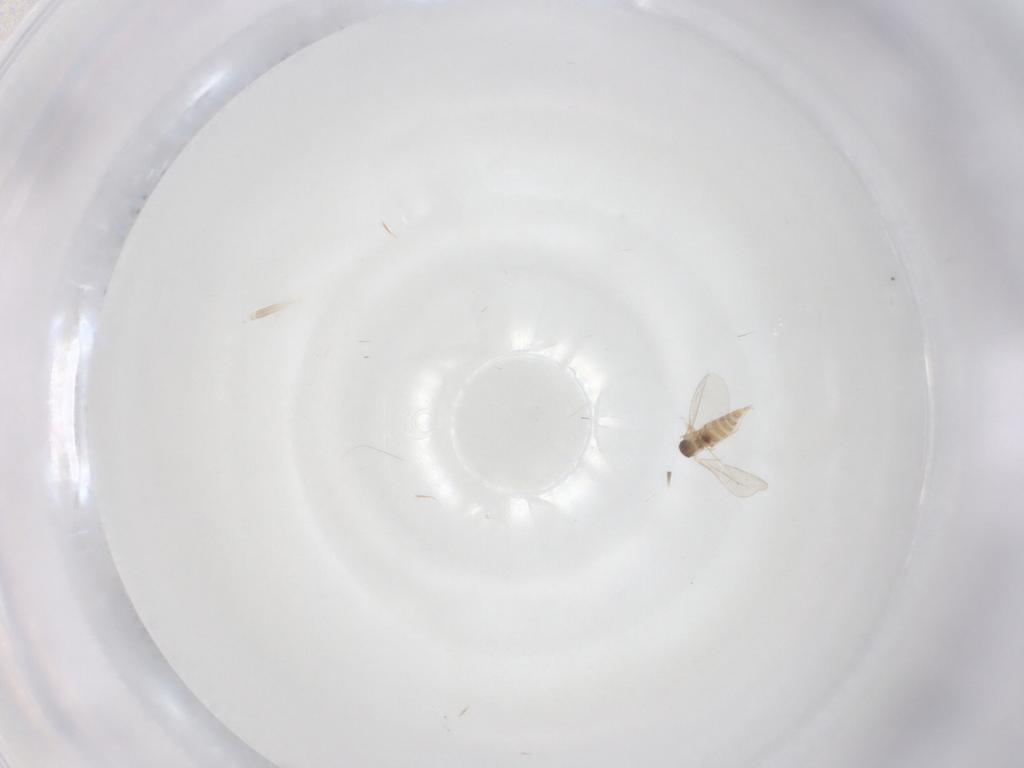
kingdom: Animalia
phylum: Arthropoda
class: Insecta
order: Diptera
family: Cecidomyiidae
